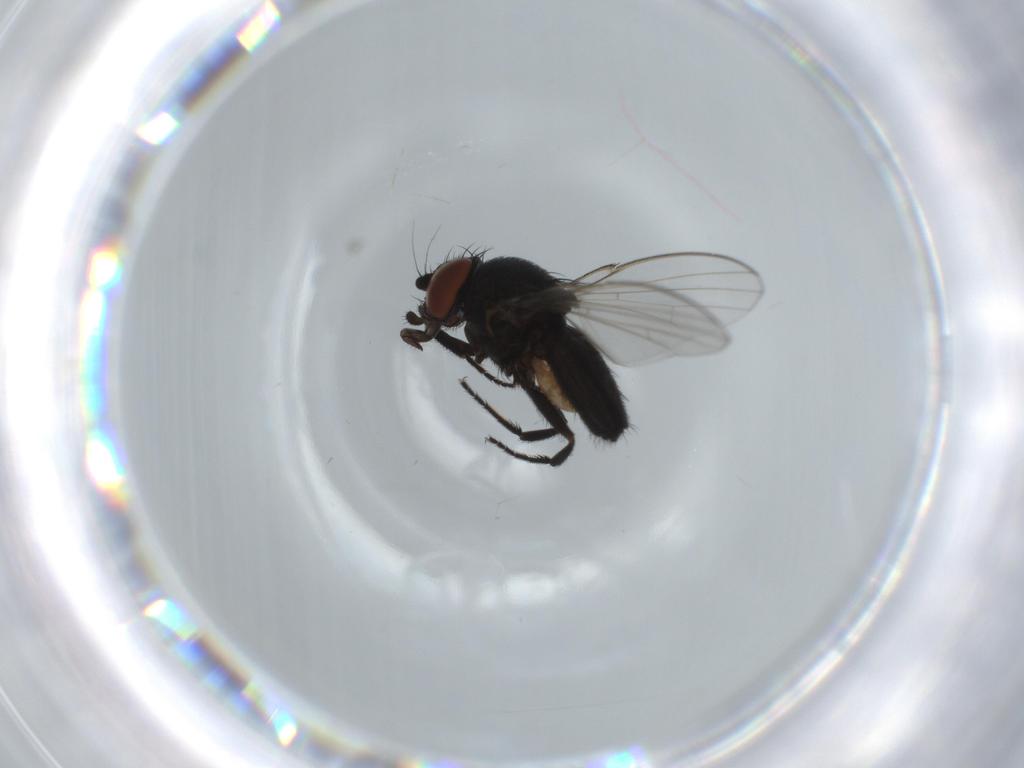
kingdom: Animalia
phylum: Arthropoda
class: Insecta
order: Diptera
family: Milichiidae
